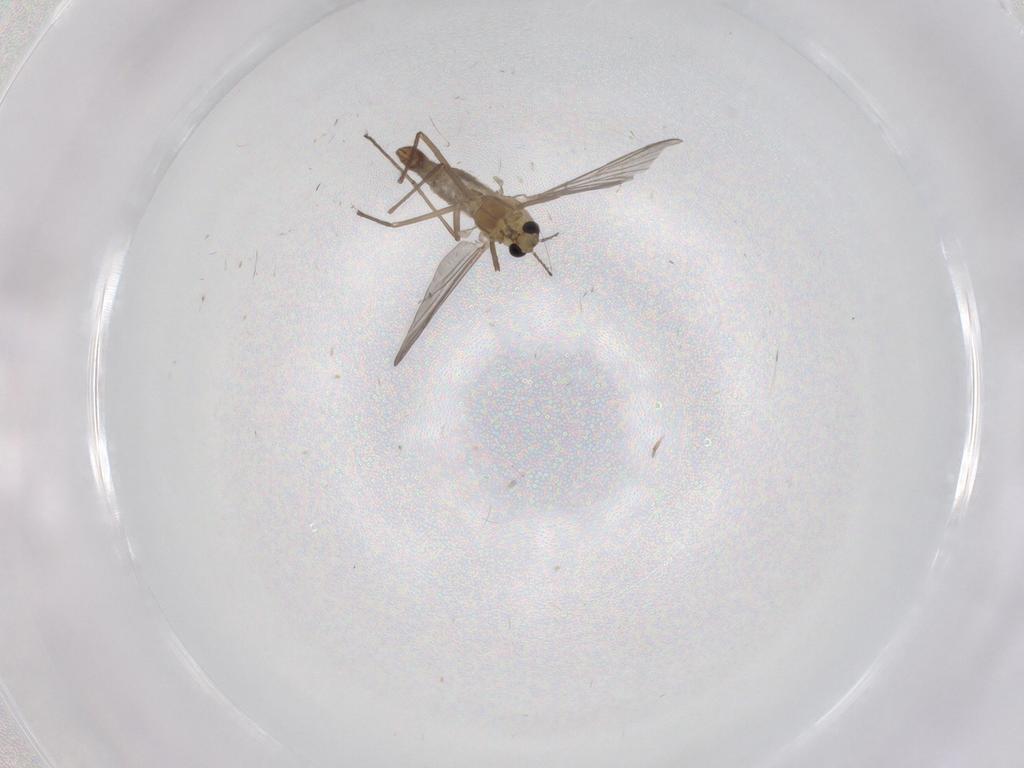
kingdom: Animalia
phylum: Arthropoda
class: Insecta
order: Diptera
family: Chironomidae
